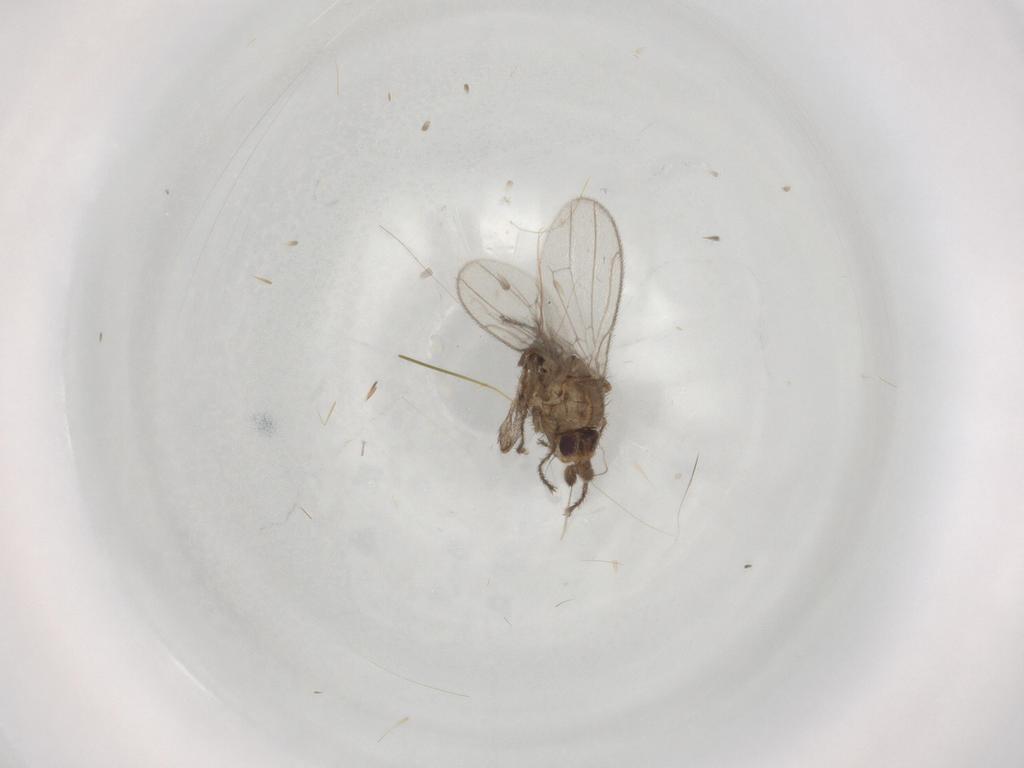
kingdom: Animalia
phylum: Arthropoda
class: Insecta
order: Diptera
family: Sphaeroceridae
